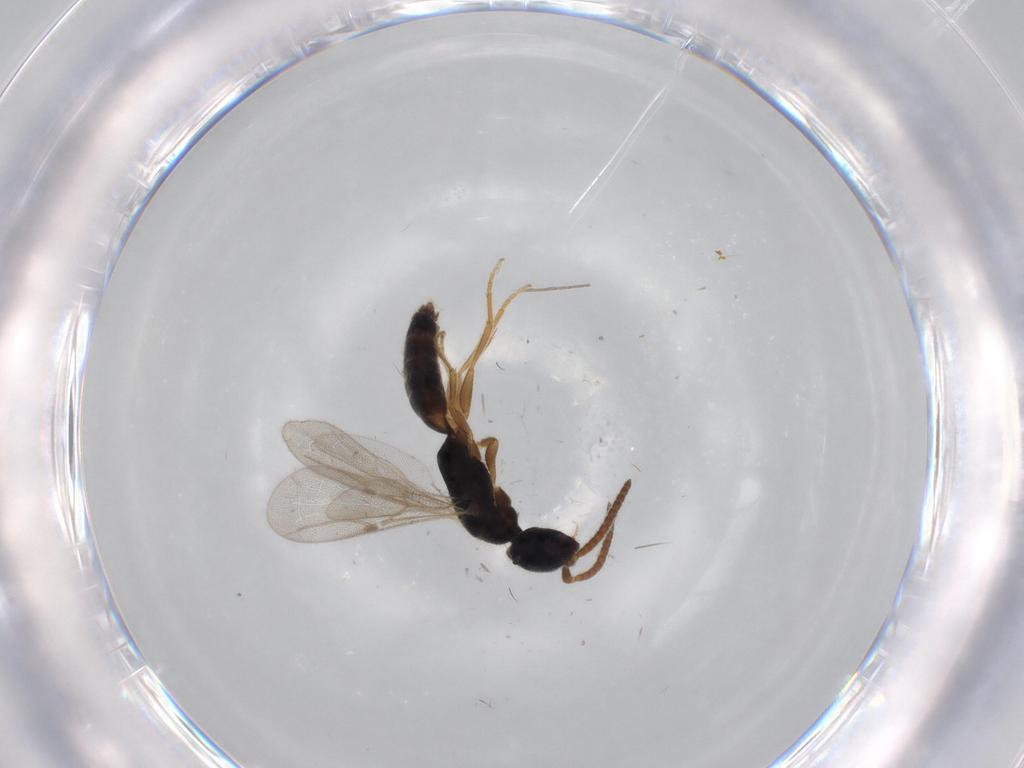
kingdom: Animalia
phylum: Arthropoda
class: Insecta
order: Hymenoptera
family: Bethylidae
